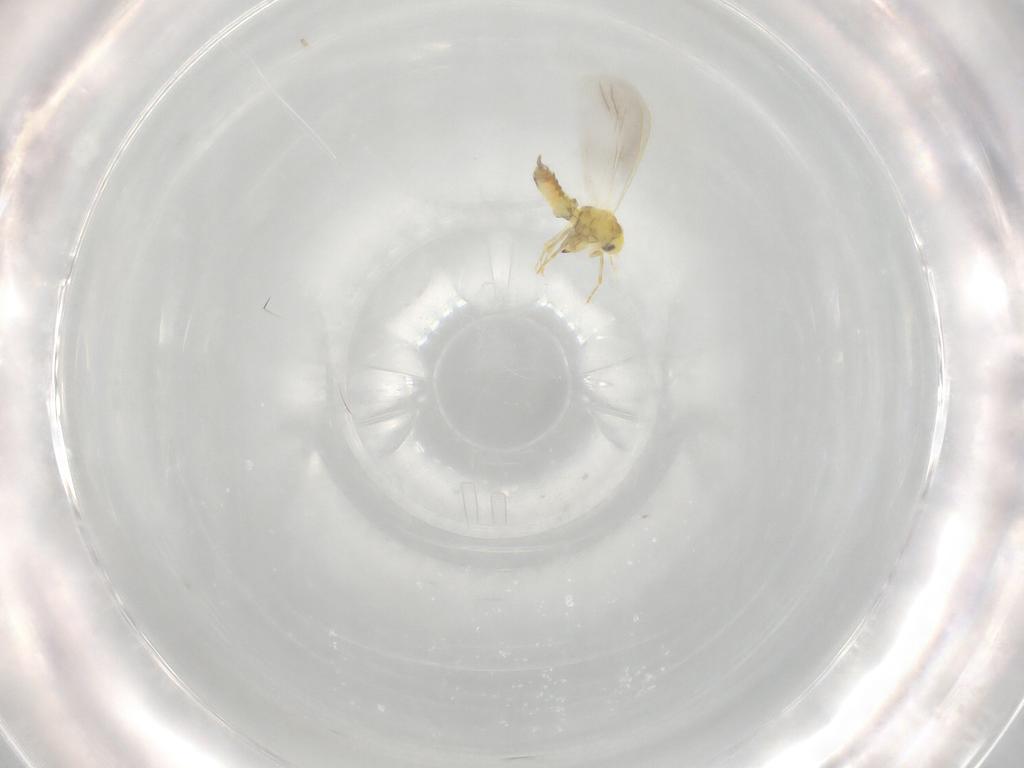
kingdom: Animalia
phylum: Arthropoda
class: Insecta
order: Hemiptera
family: Aleyrodidae
